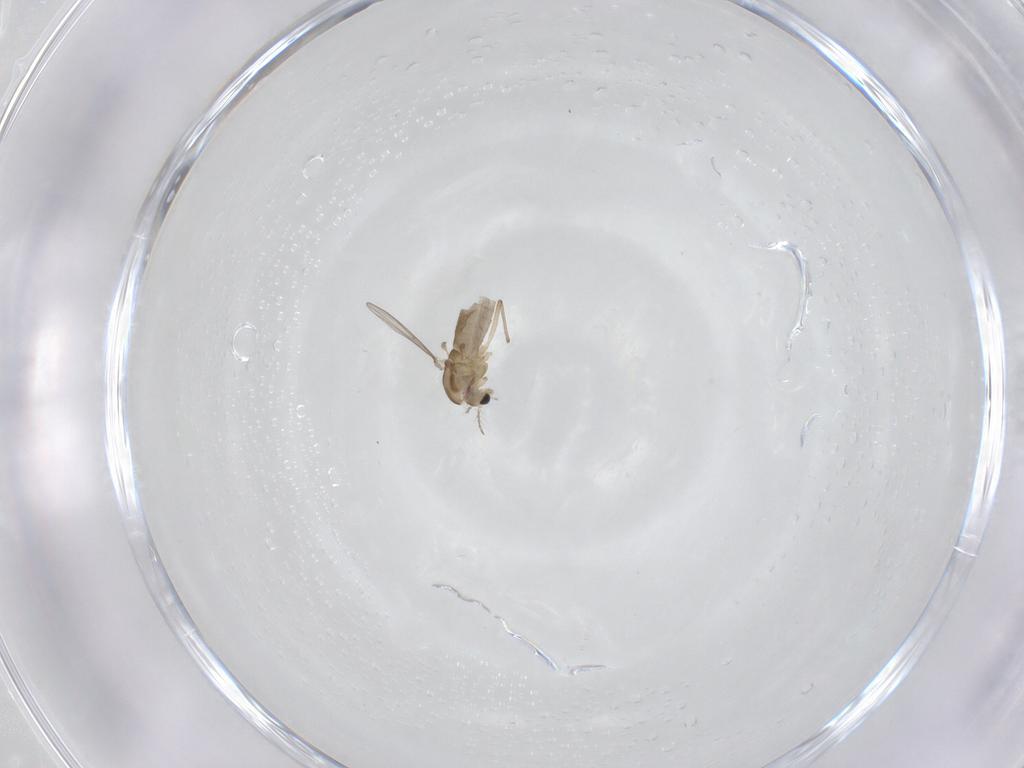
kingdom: Animalia
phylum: Arthropoda
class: Insecta
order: Diptera
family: Chironomidae
